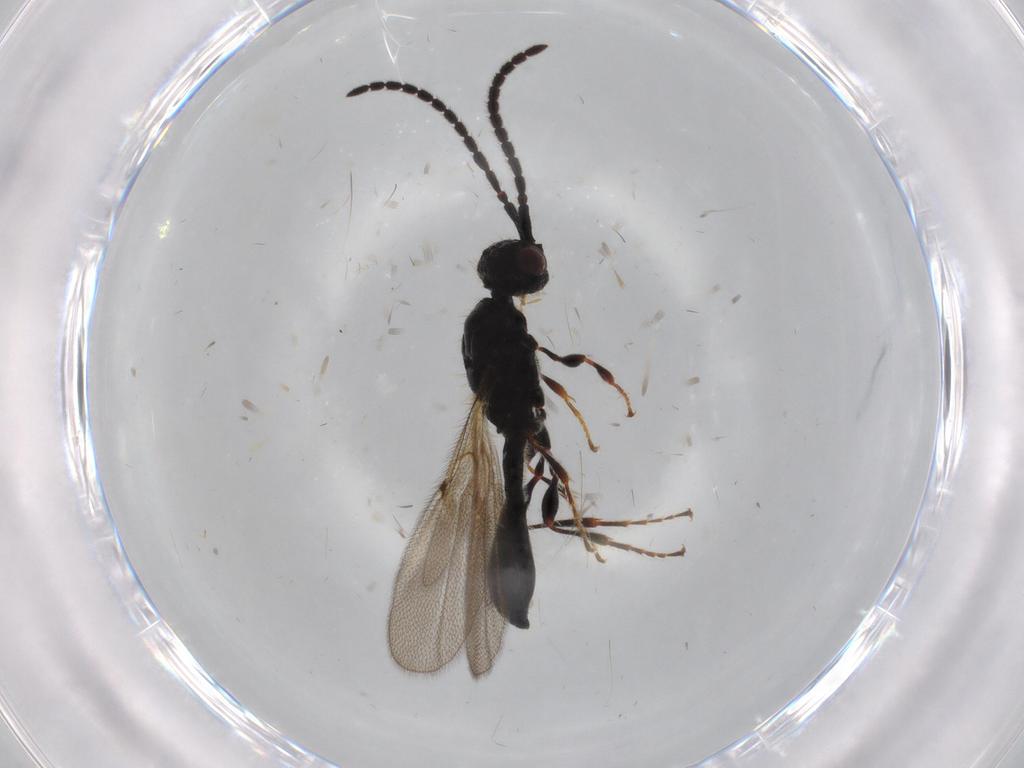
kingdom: Animalia
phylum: Arthropoda
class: Insecta
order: Hymenoptera
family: Diapriidae
